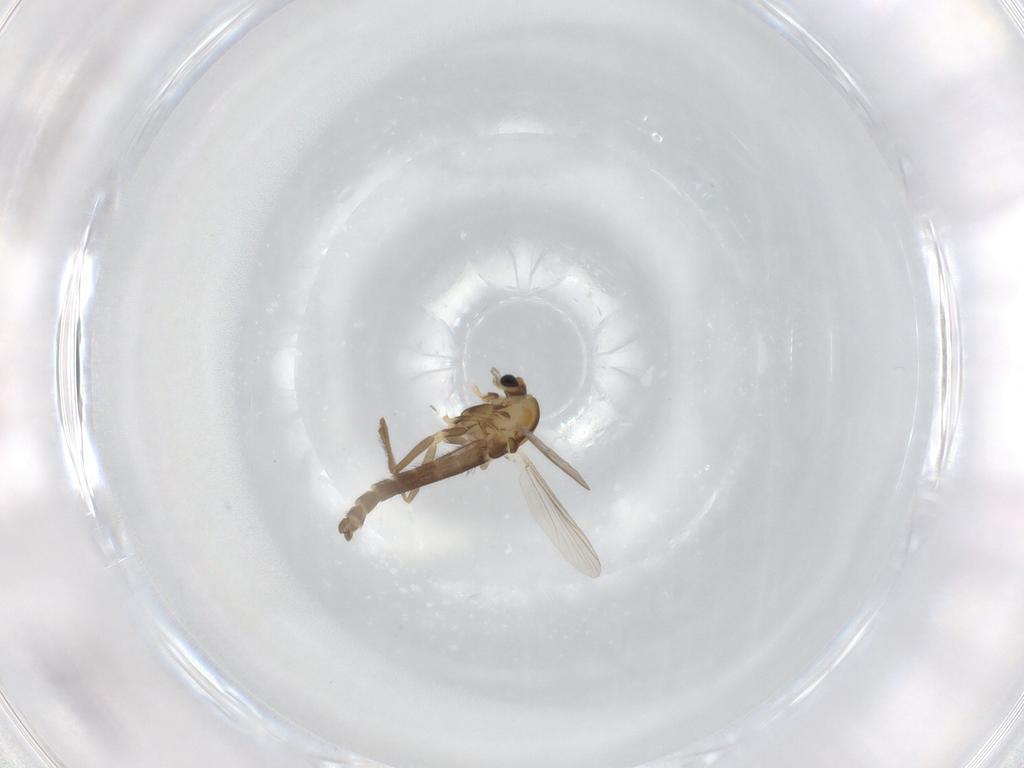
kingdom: Animalia
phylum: Arthropoda
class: Insecta
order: Diptera
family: Chironomidae
